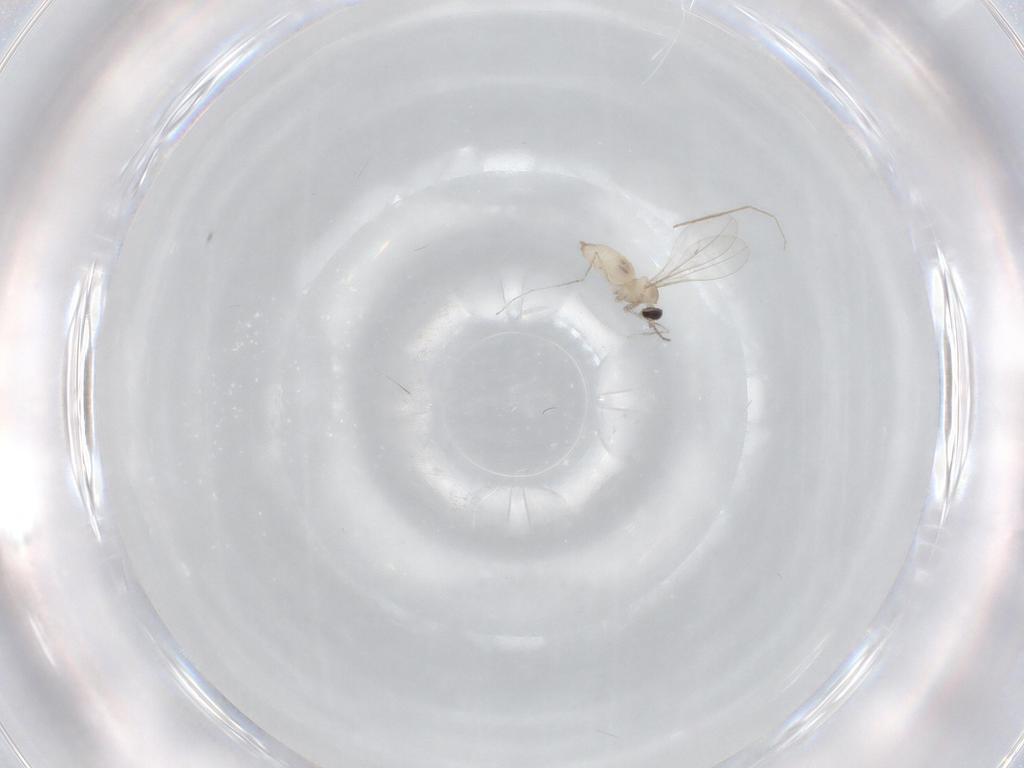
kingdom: Animalia
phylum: Arthropoda
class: Insecta
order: Diptera
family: Cecidomyiidae
